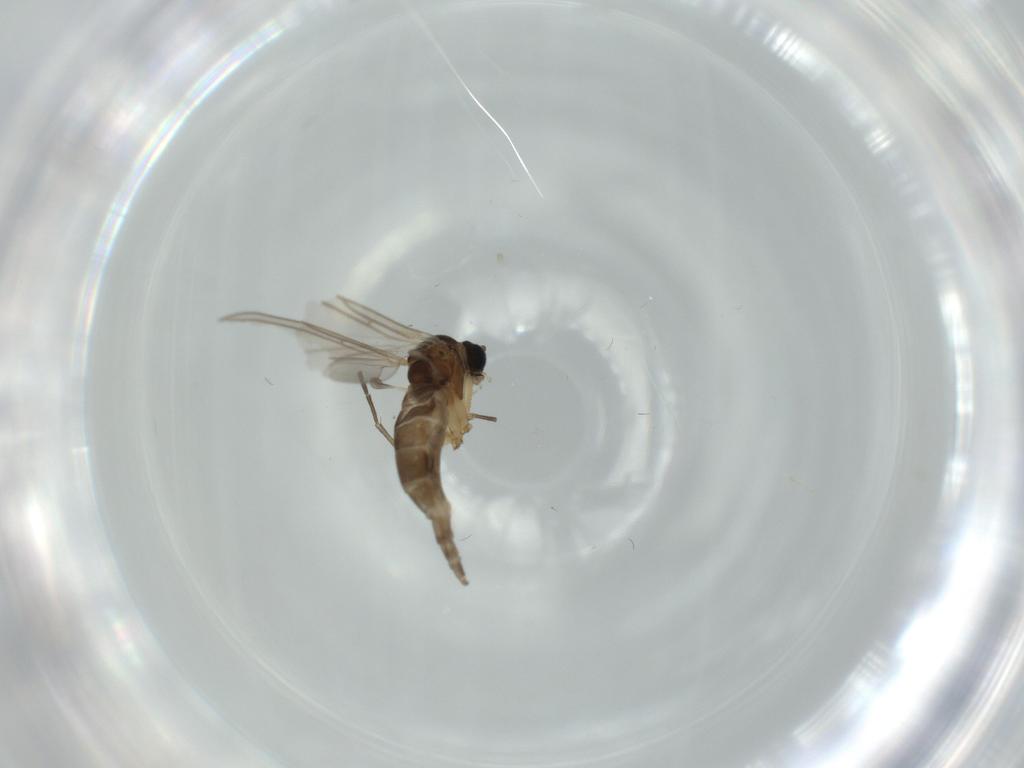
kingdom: Animalia
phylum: Arthropoda
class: Insecta
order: Diptera
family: Sciaridae
